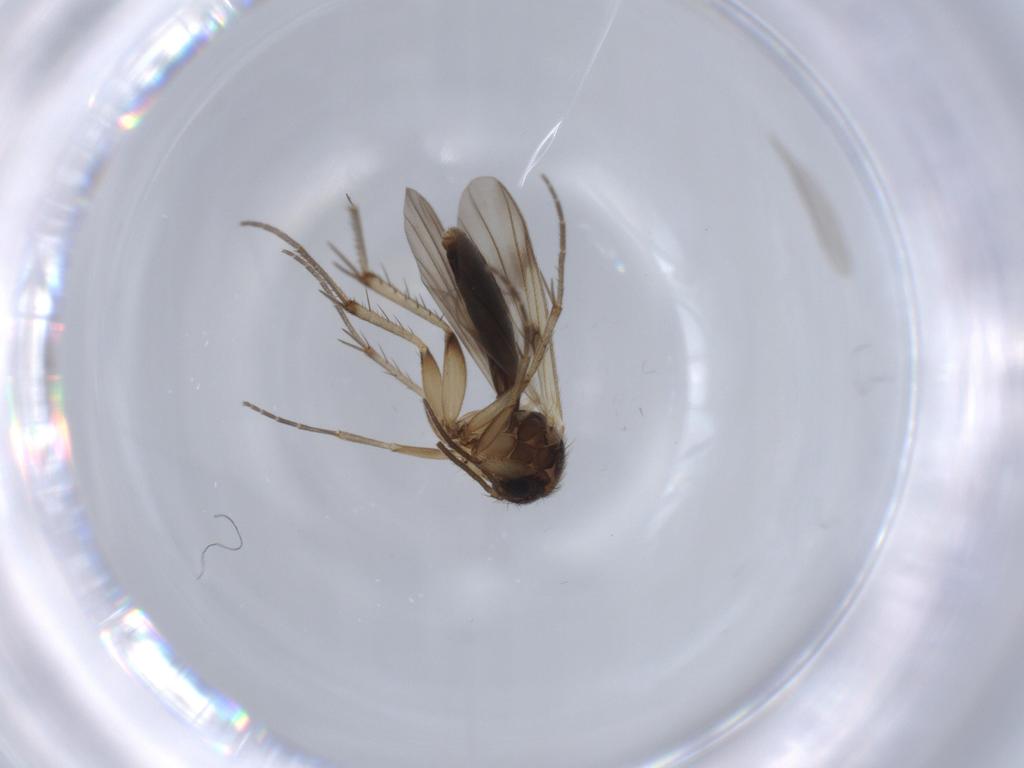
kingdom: Animalia
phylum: Arthropoda
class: Insecta
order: Diptera
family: Mycetophilidae
